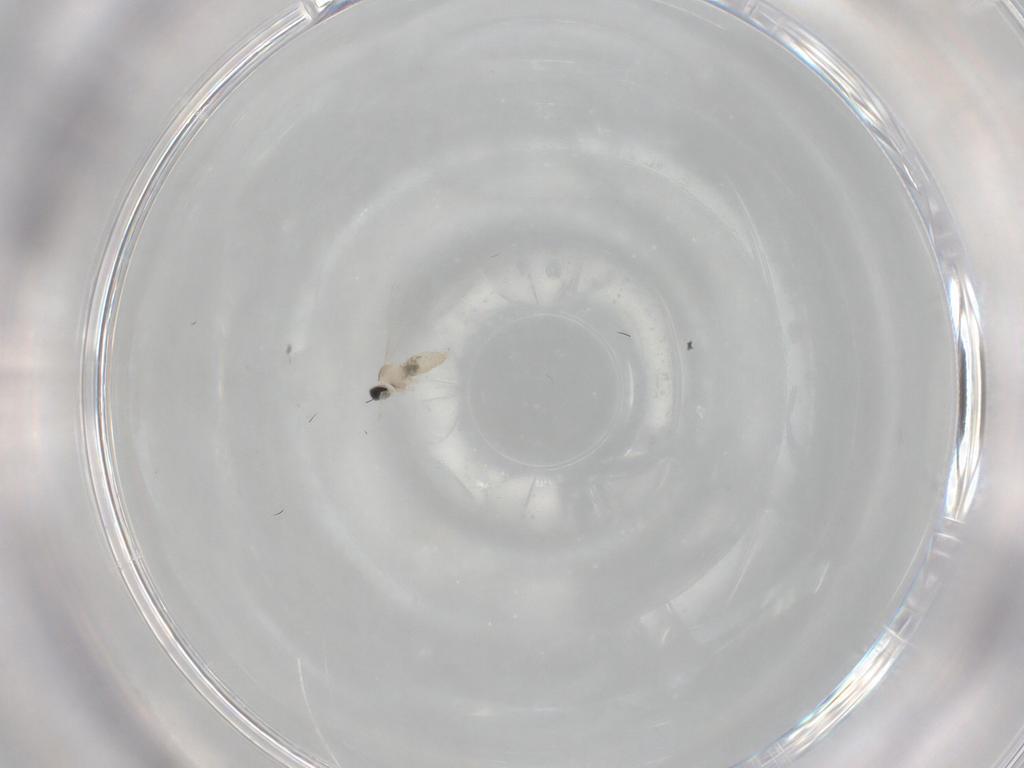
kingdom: Animalia
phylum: Arthropoda
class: Insecta
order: Diptera
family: Cecidomyiidae
